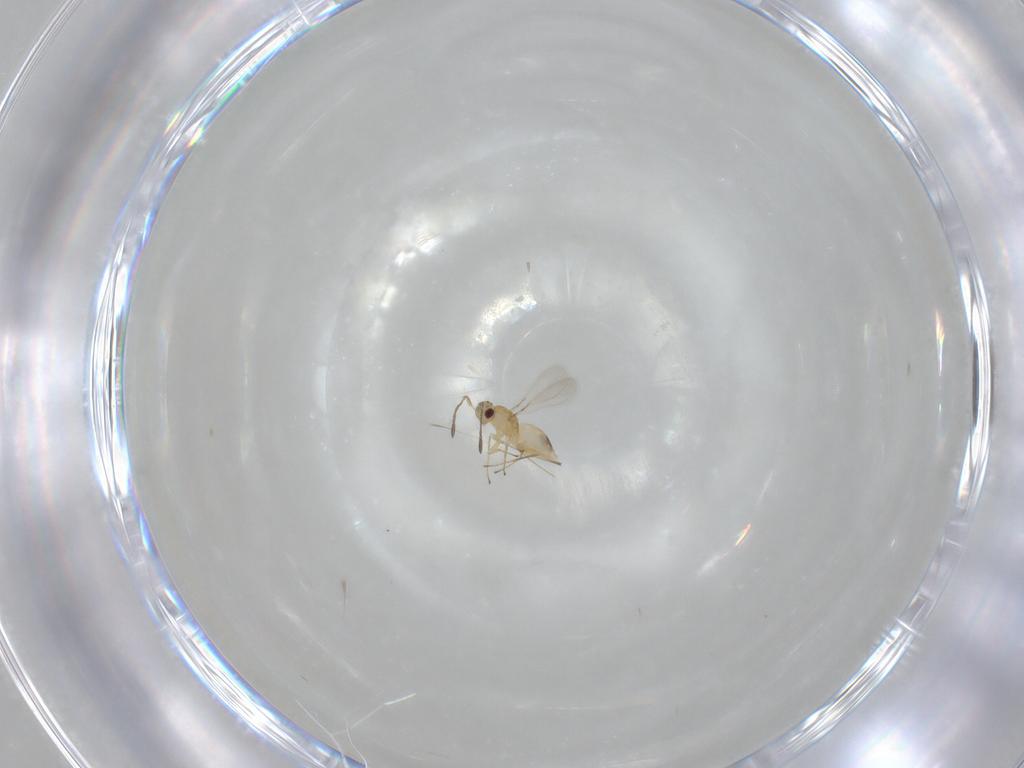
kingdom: Animalia
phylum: Arthropoda
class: Insecta
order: Hymenoptera
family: Mymaridae
